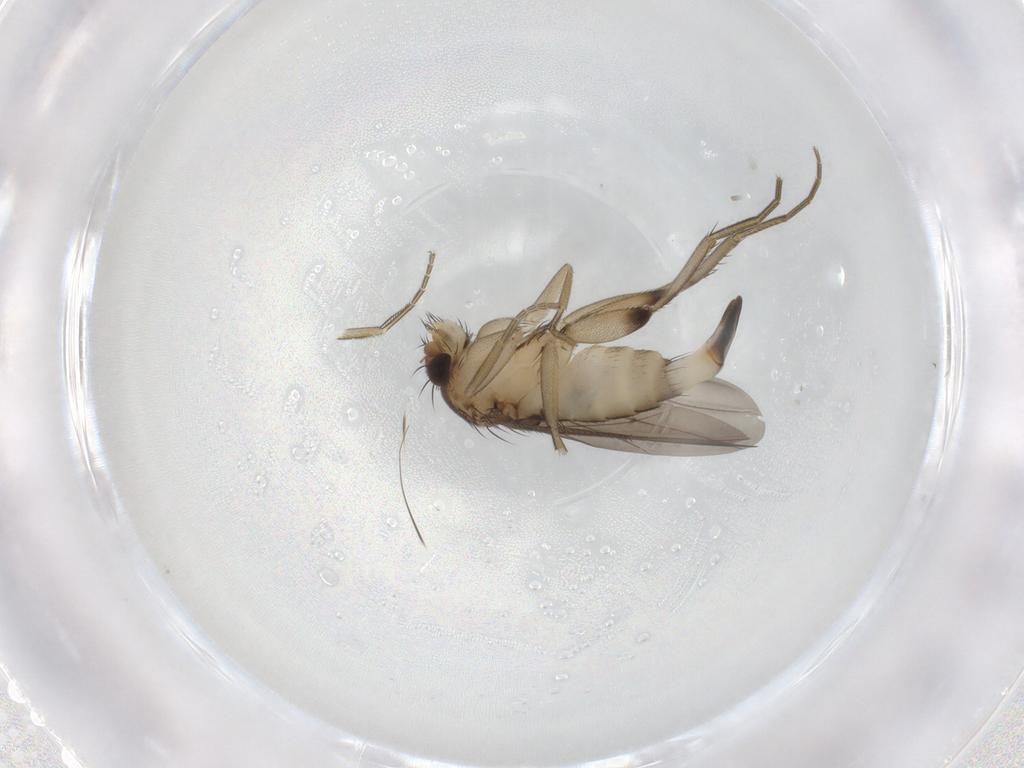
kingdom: Animalia
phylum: Arthropoda
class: Insecta
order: Diptera
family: Phoridae
